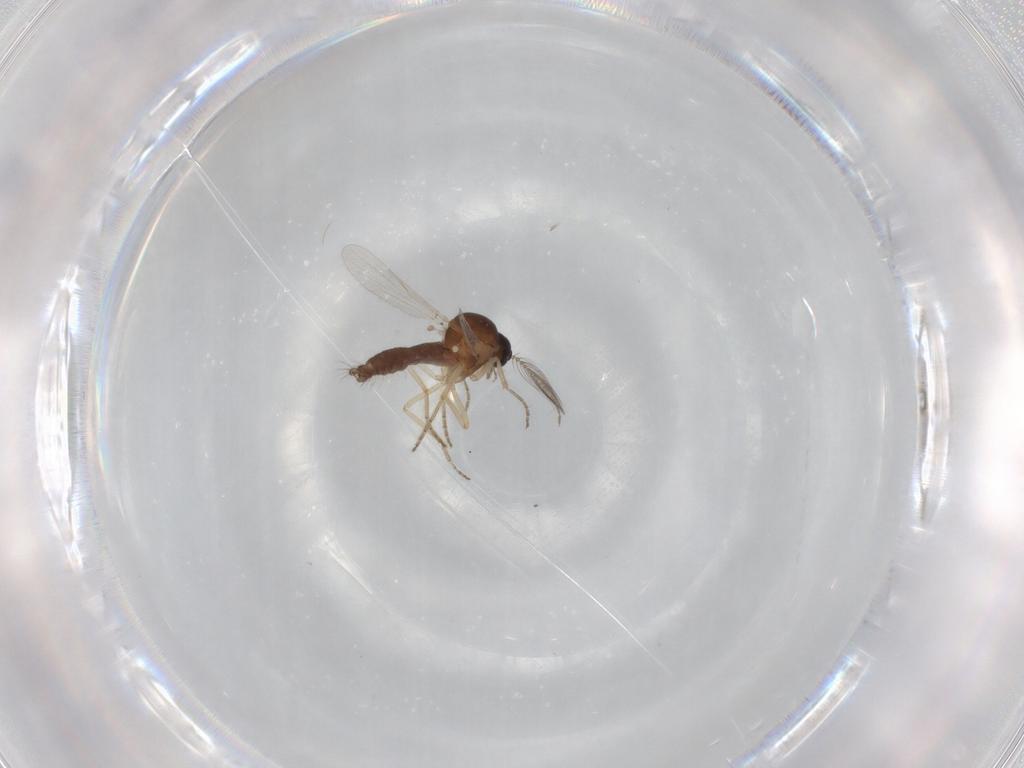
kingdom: Animalia
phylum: Arthropoda
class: Insecta
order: Diptera
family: Ceratopogonidae
